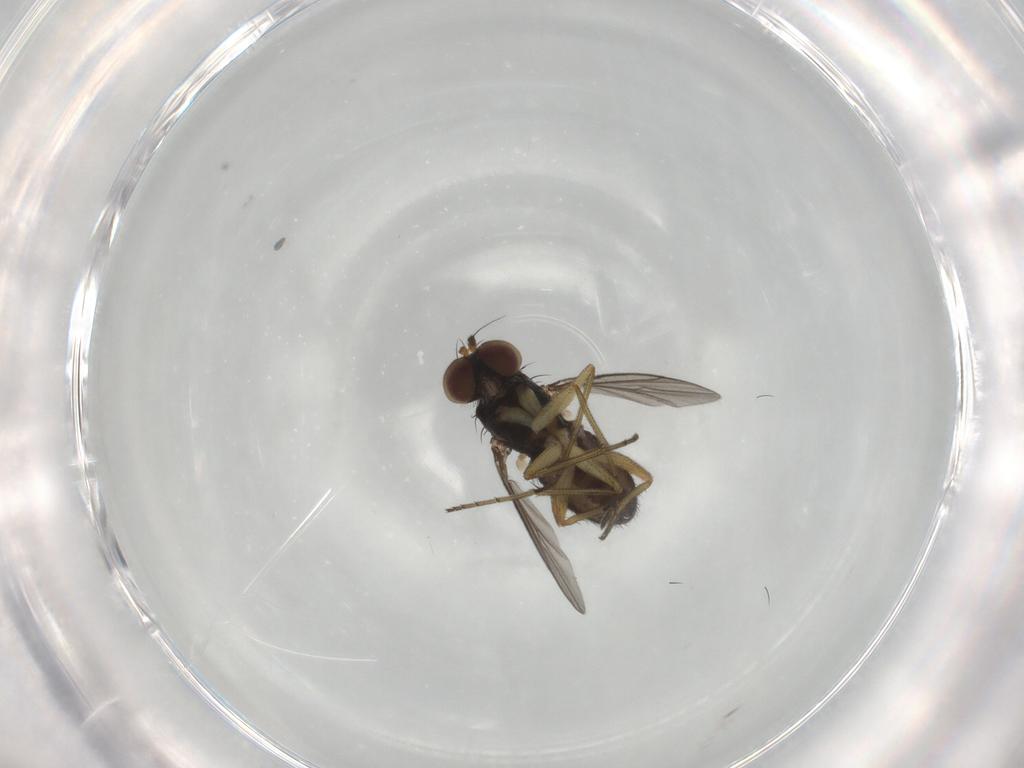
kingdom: Animalia
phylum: Arthropoda
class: Insecta
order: Diptera
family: Dolichopodidae
